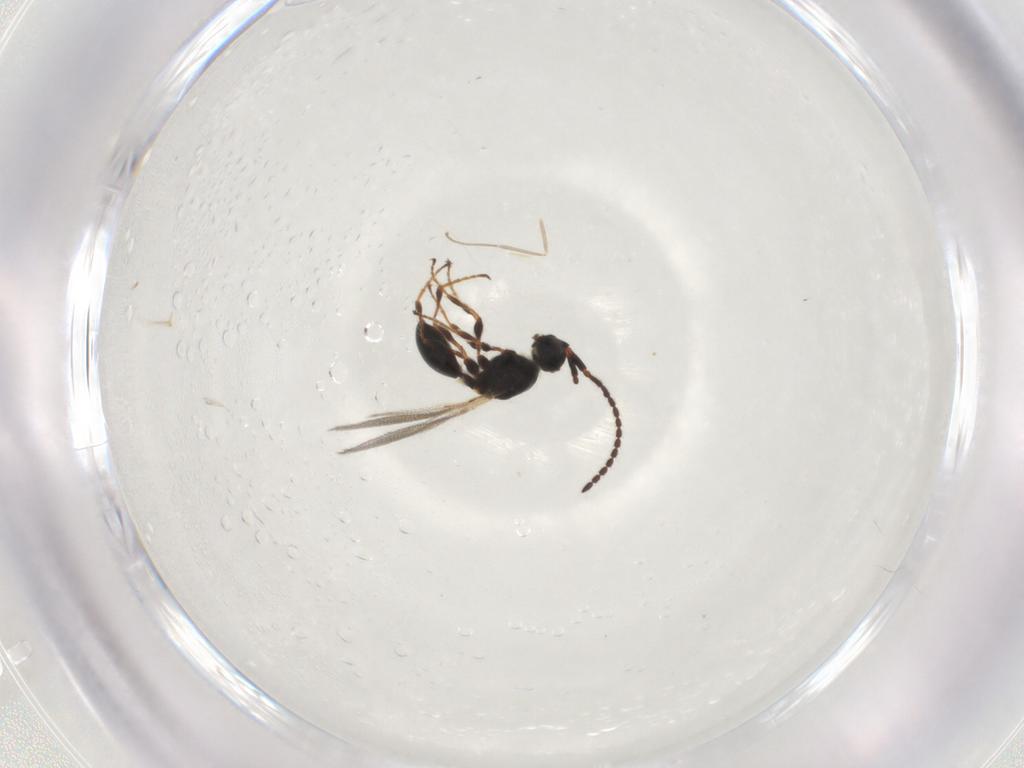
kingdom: Animalia
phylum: Arthropoda
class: Insecta
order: Hymenoptera
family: Diapriidae
